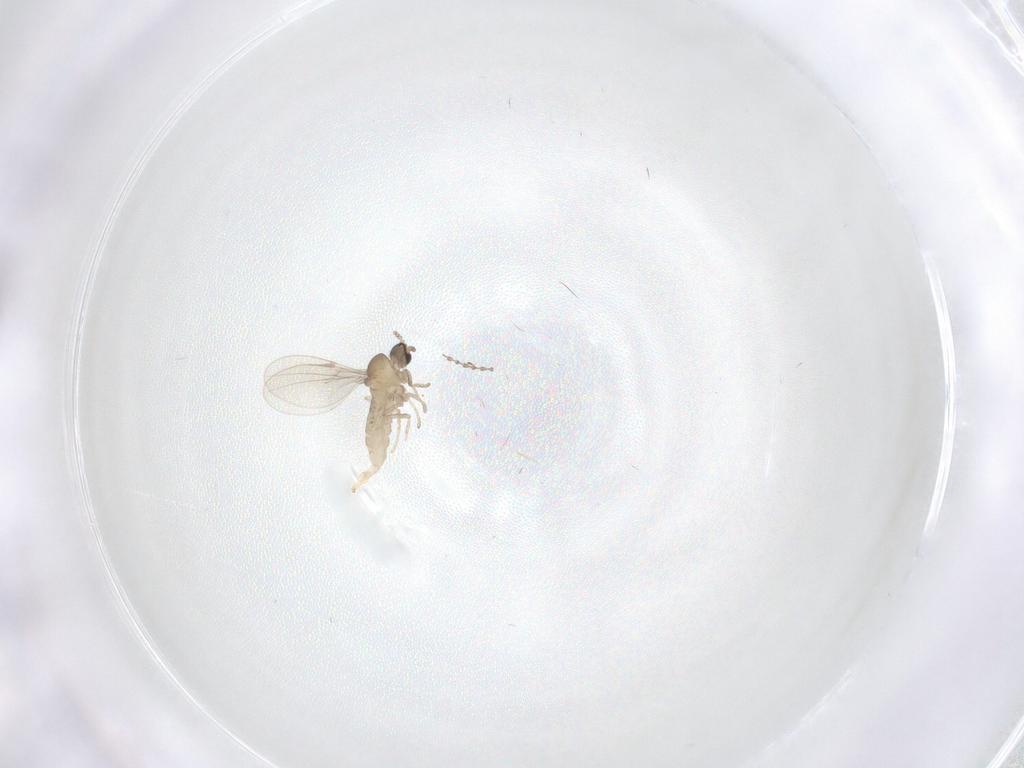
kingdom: Animalia
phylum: Arthropoda
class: Insecta
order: Diptera
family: Cecidomyiidae
